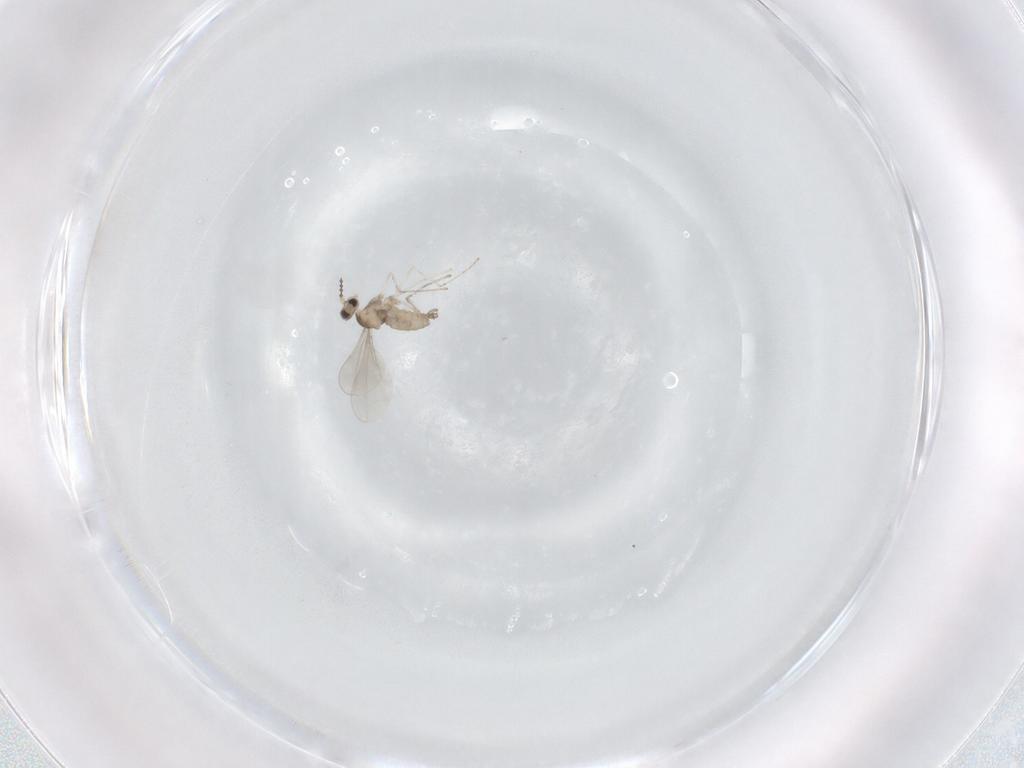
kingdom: Animalia
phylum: Arthropoda
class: Insecta
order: Diptera
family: Cecidomyiidae
